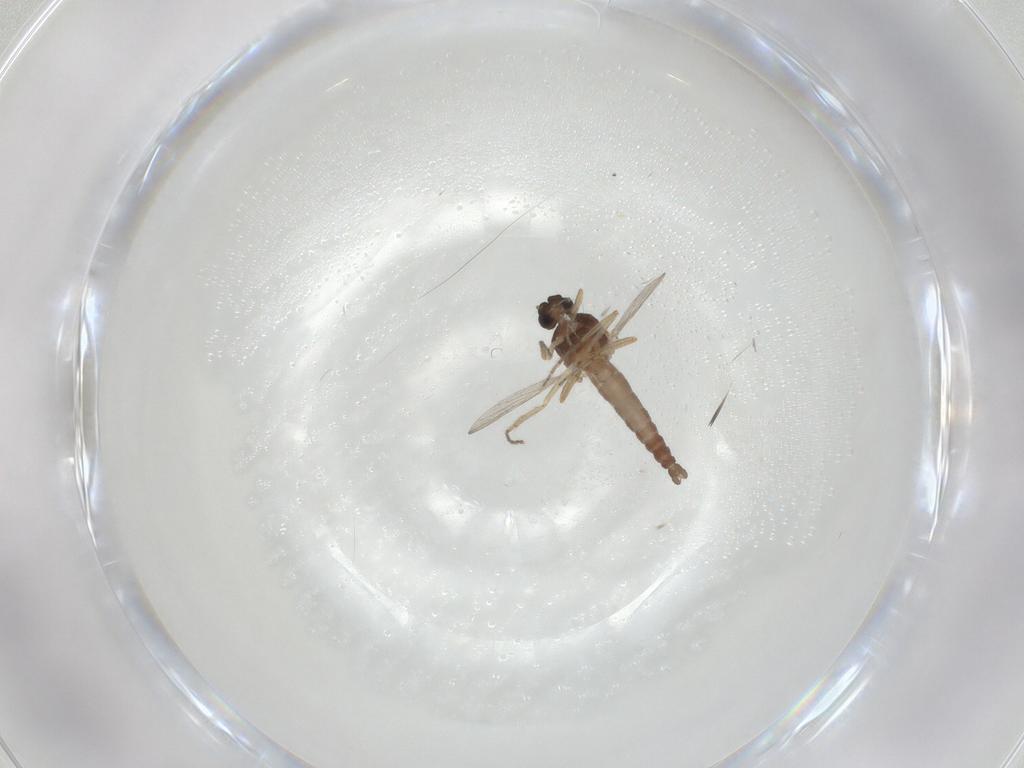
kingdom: Animalia
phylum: Arthropoda
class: Insecta
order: Diptera
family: Ceratopogonidae
